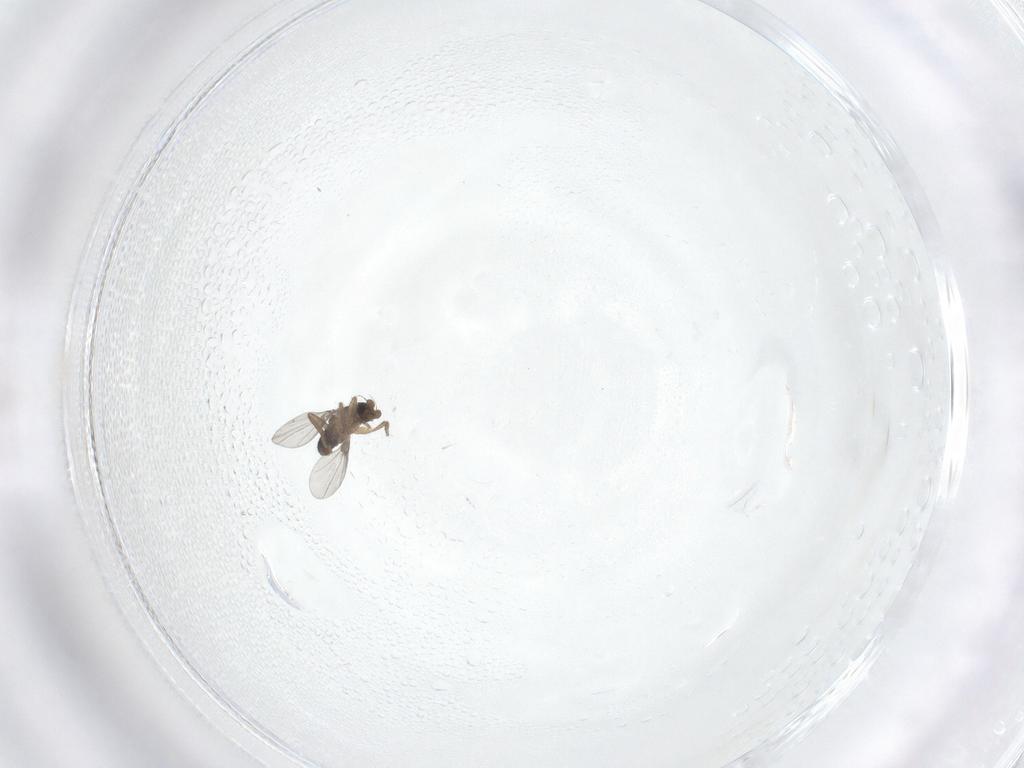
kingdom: Animalia
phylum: Arthropoda
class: Insecta
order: Diptera
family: Phoridae
